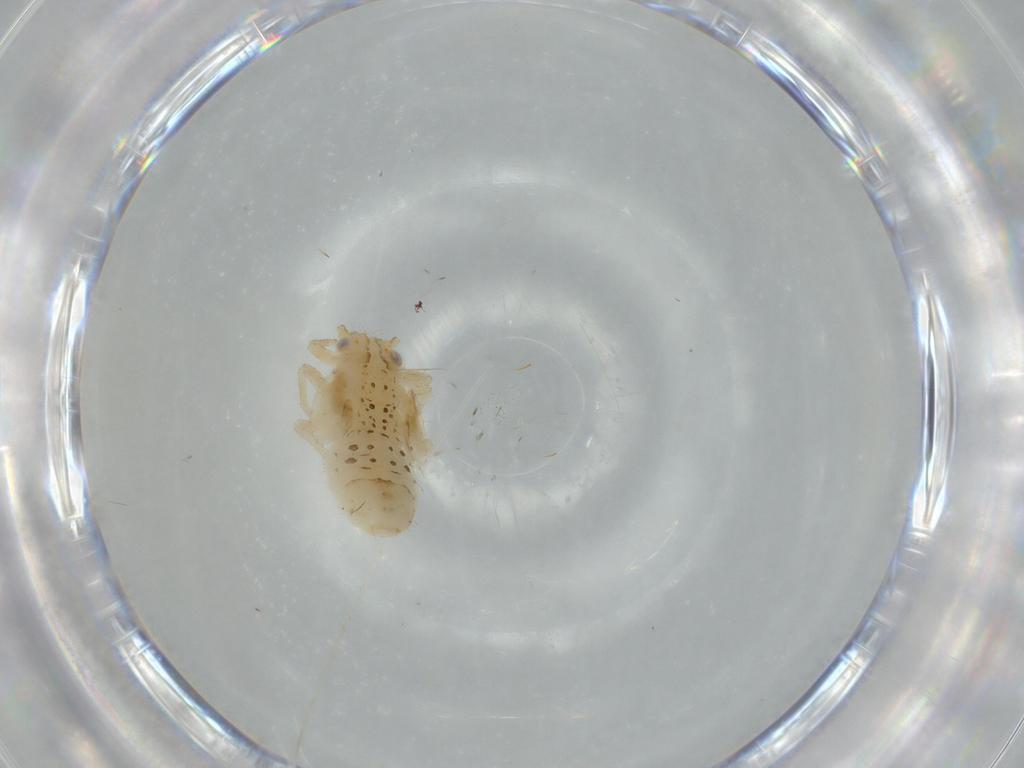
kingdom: Animalia
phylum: Arthropoda
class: Insecta
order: Hemiptera
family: Psyllidae
